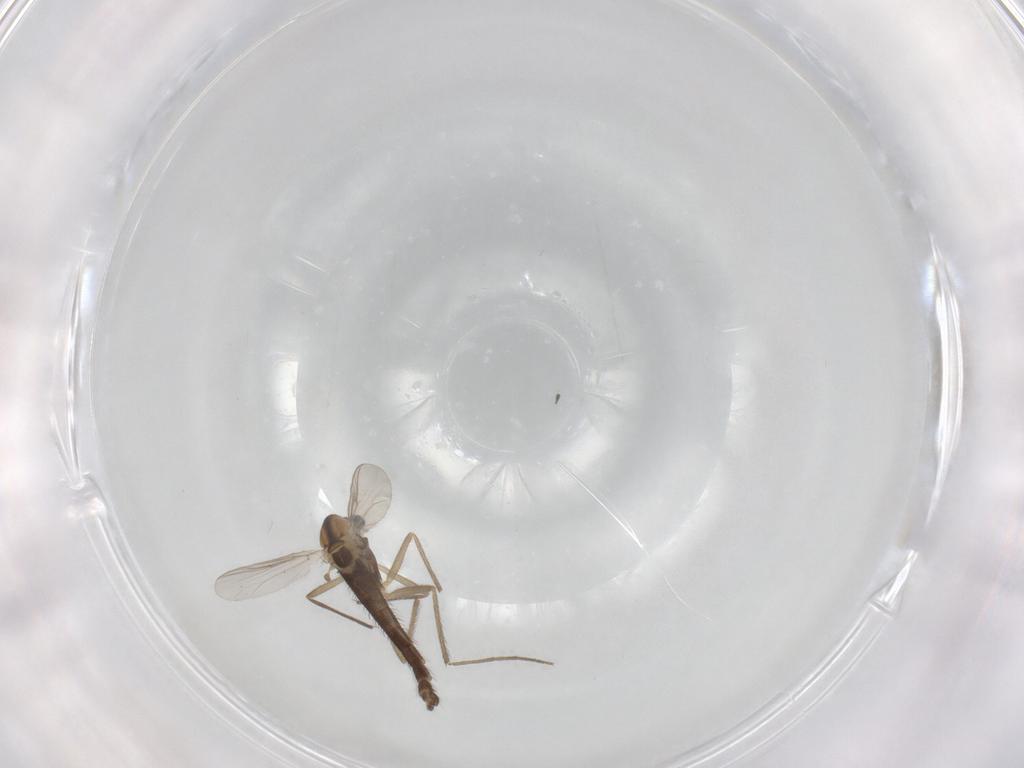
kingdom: Animalia
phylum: Arthropoda
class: Insecta
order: Diptera
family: Chironomidae
